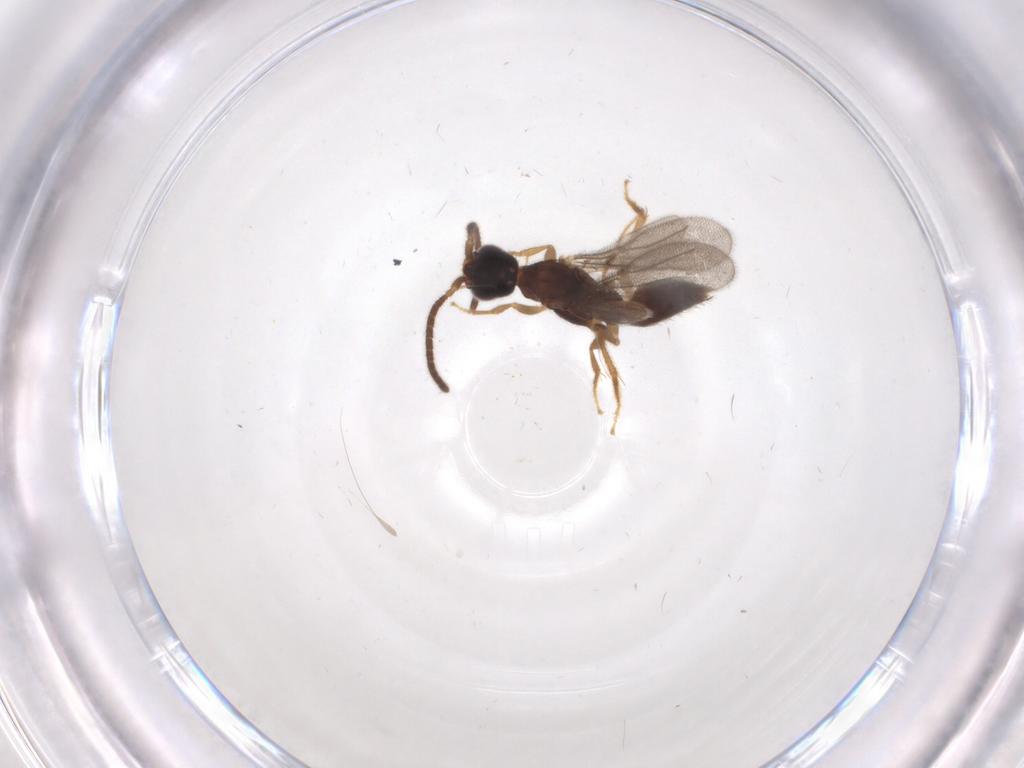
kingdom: Animalia
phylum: Arthropoda
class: Insecta
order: Hymenoptera
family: Bethylidae
